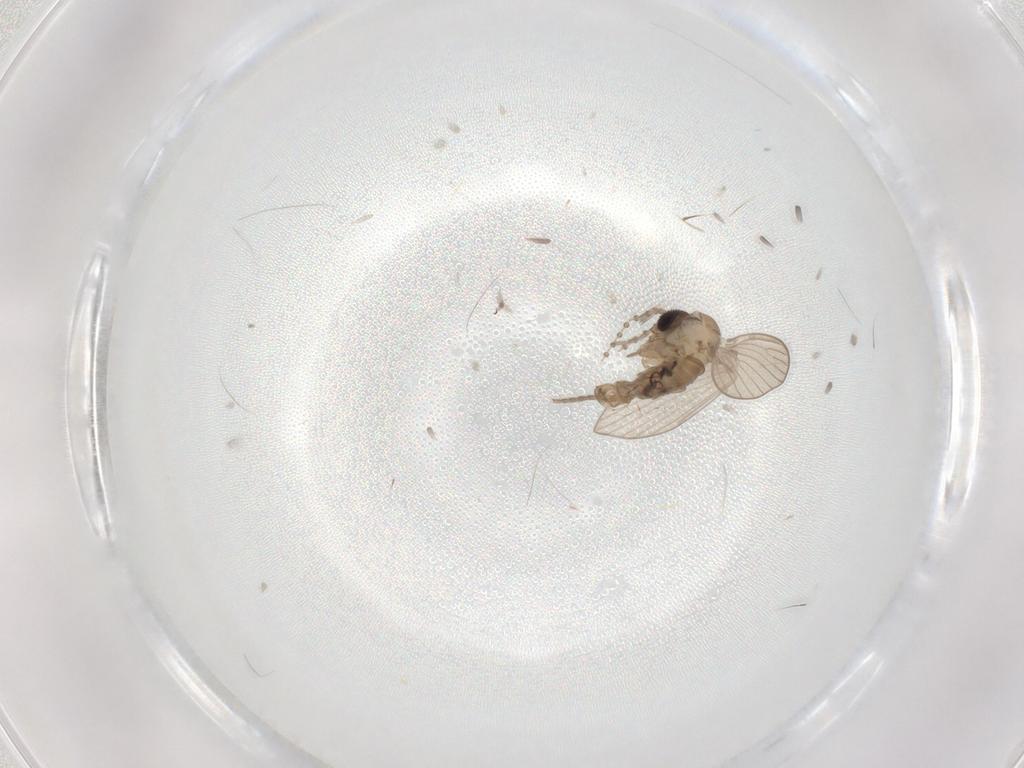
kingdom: Animalia
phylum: Arthropoda
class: Insecta
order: Diptera
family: Psychodidae
